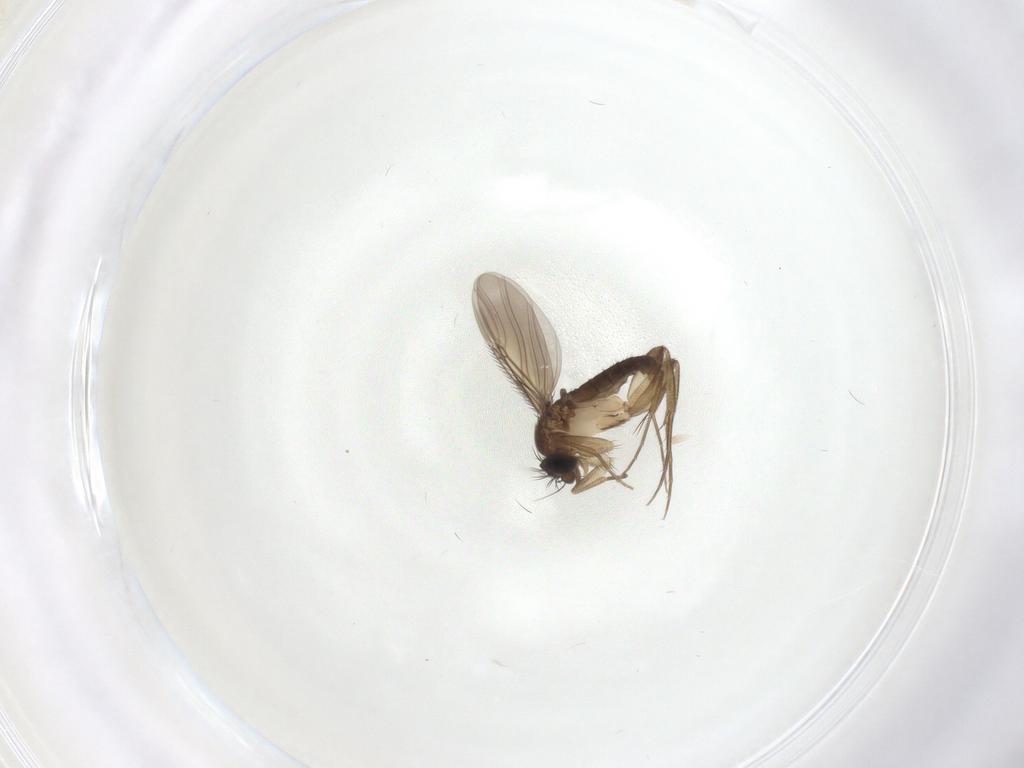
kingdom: Animalia
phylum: Arthropoda
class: Insecta
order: Diptera
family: Phoridae
